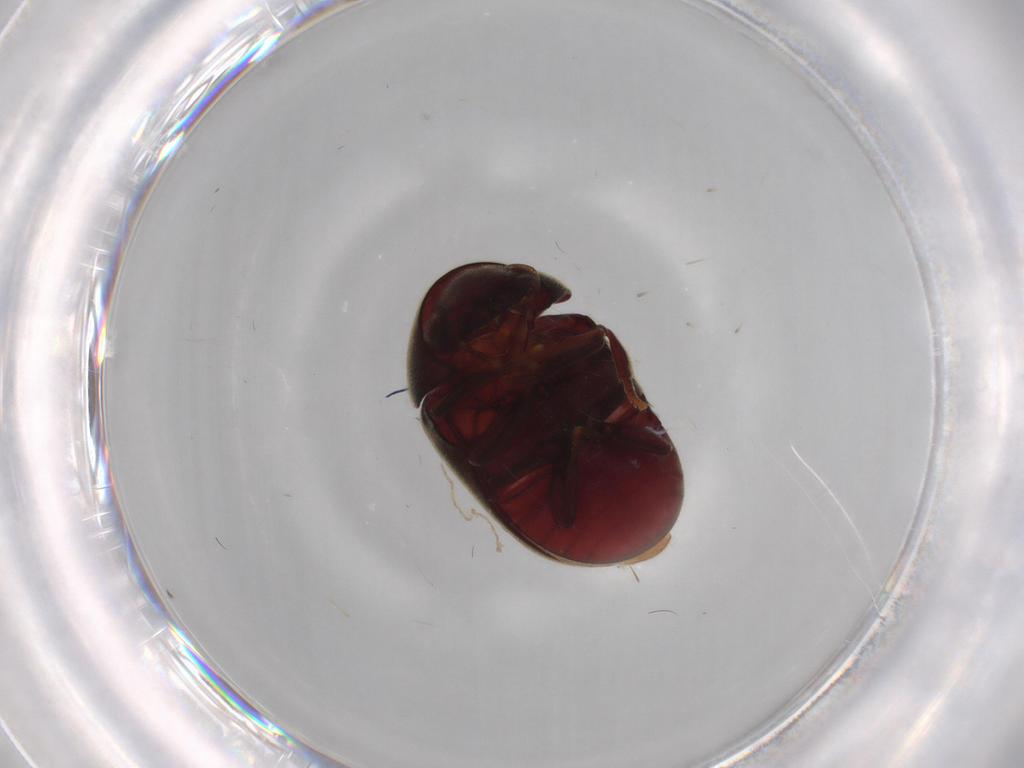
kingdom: Animalia
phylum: Arthropoda
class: Insecta
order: Coleoptera
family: Ptinidae
